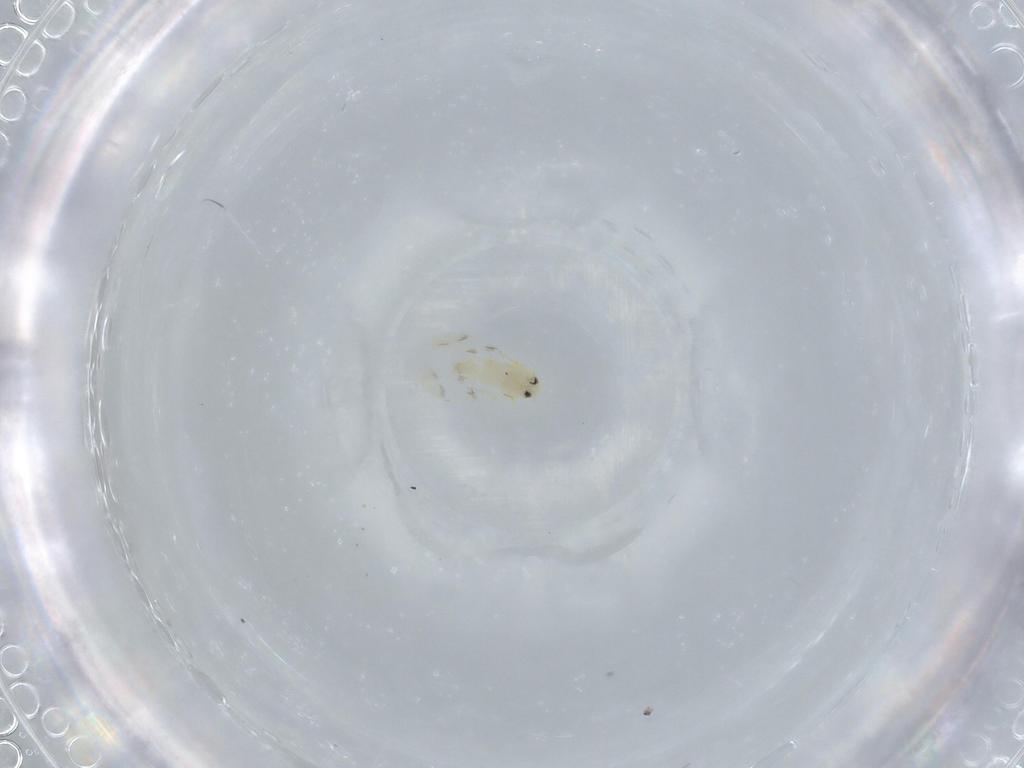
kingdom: Animalia
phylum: Arthropoda
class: Insecta
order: Hemiptera
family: Aleyrodidae
